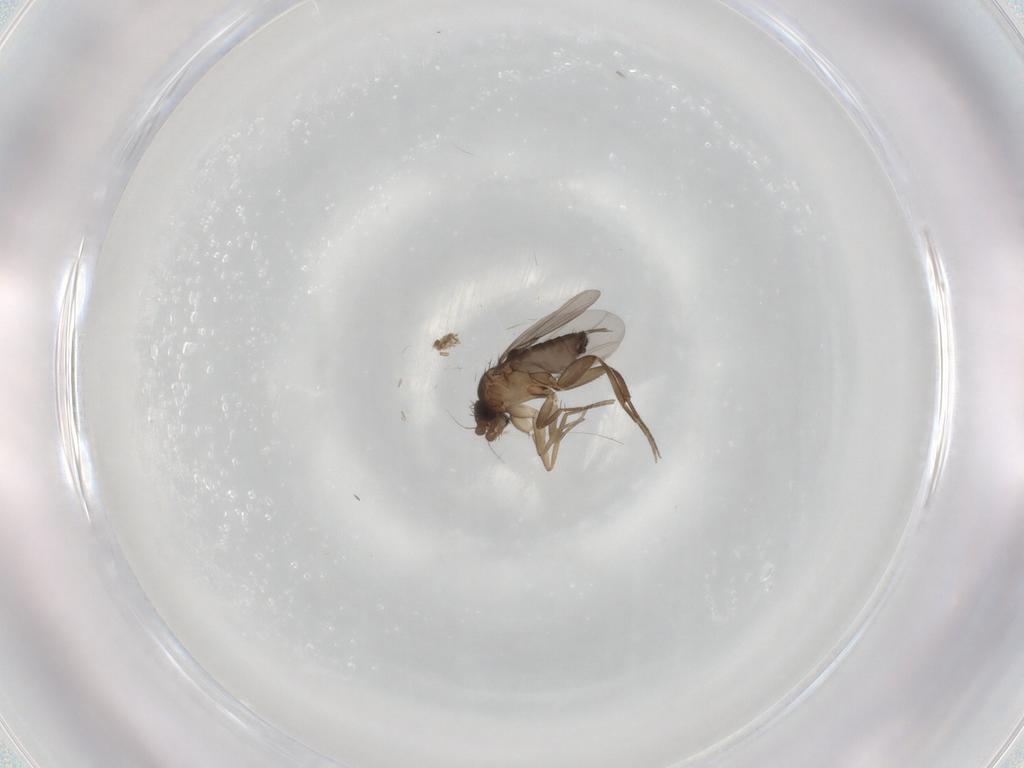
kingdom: Animalia
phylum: Arthropoda
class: Insecta
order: Diptera
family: Phoridae
